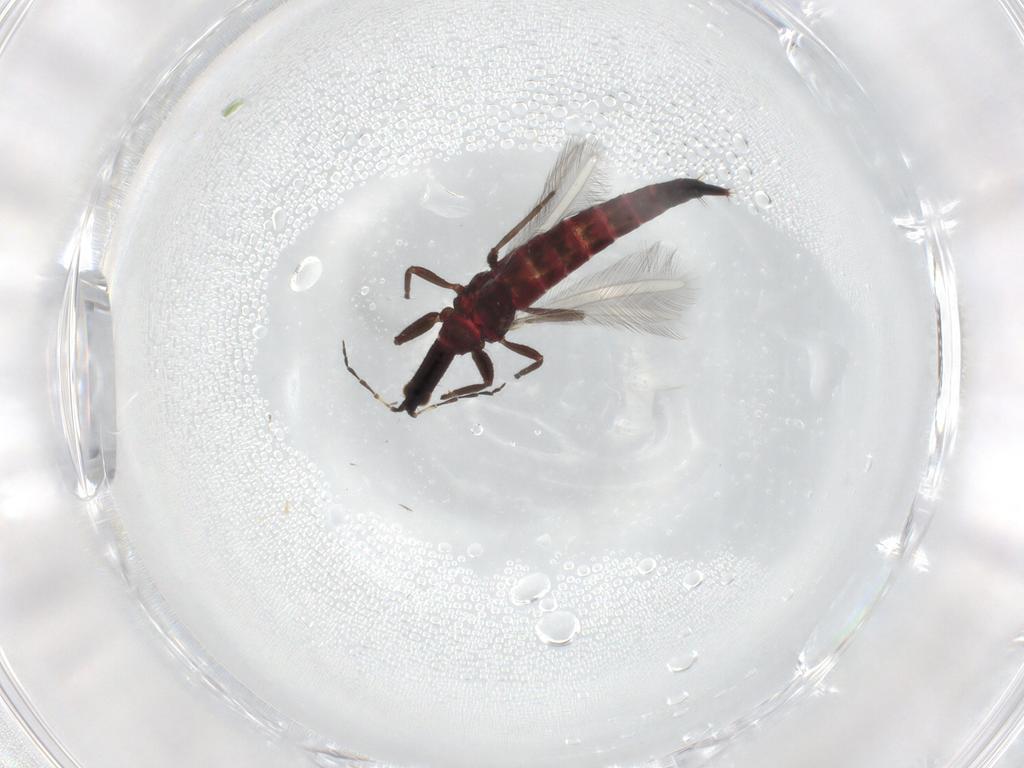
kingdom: Animalia
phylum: Arthropoda
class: Insecta
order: Thysanoptera
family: Phlaeothripidae
